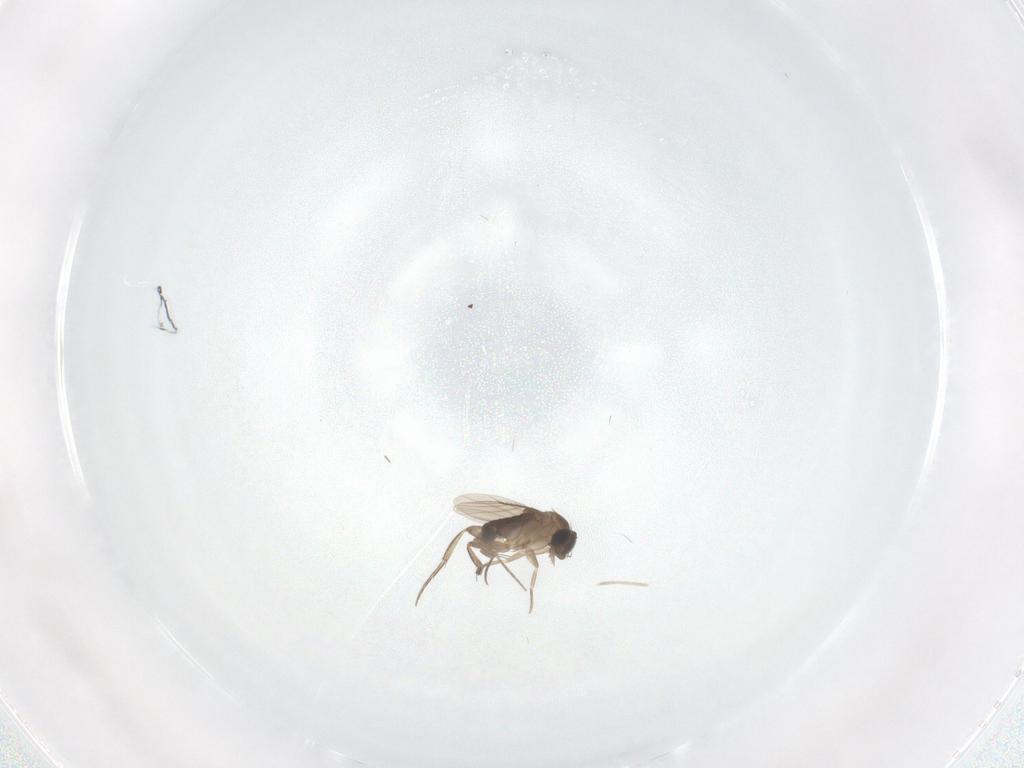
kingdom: Animalia
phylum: Arthropoda
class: Insecta
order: Diptera
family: Phoridae
